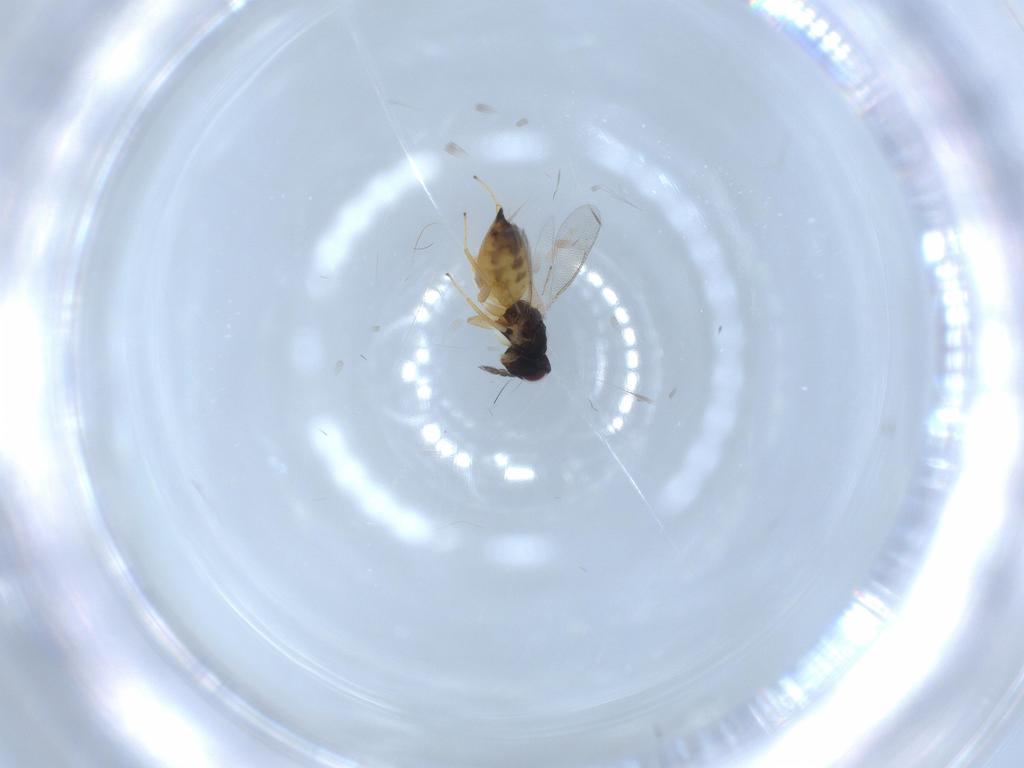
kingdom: Animalia
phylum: Arthropoda
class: Insecta
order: Hymenoptera
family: Eulophidae
